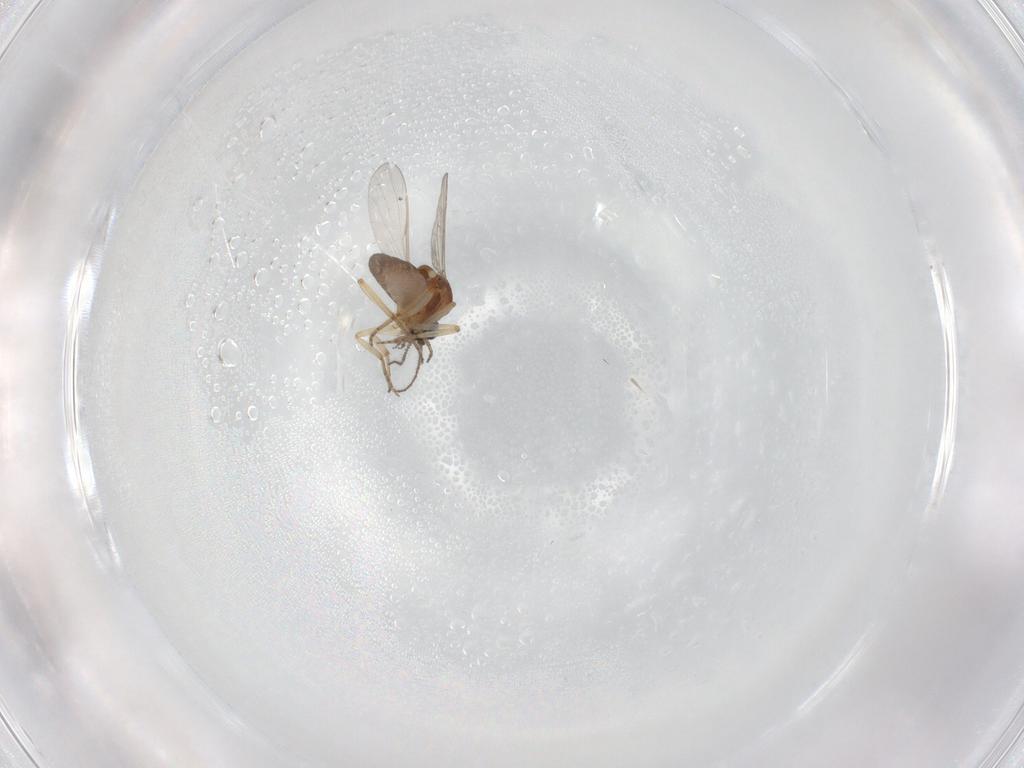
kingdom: Animalia
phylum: Arthropoda
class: Insecta
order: Diptera
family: Ceratopogonidae
